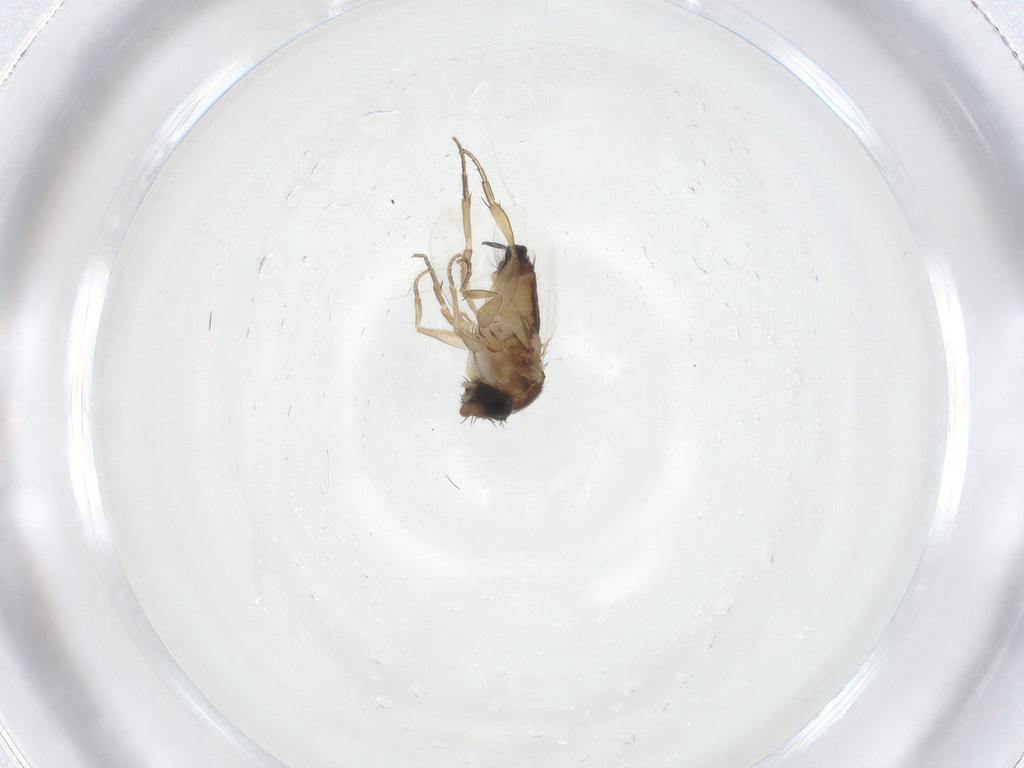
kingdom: Animalia
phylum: Arthropoda
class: Insecta
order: Diptera
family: Phoridae
